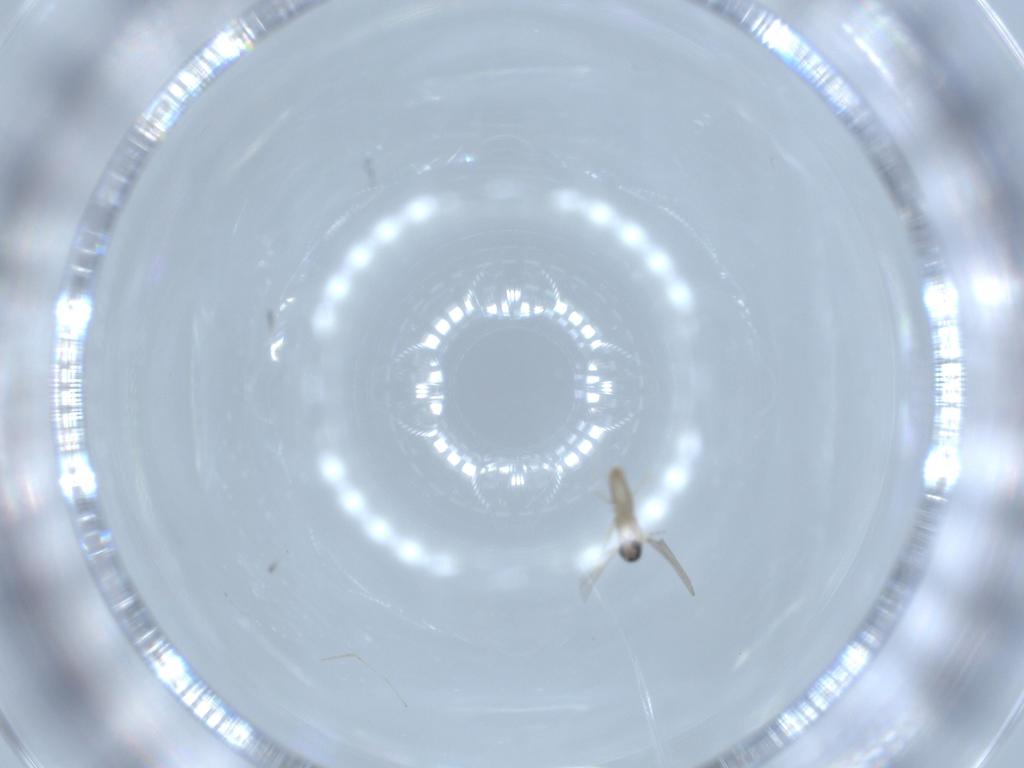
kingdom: Animalia
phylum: Arthropoda
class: Insecta
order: Diptera
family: Cecidomyiidae
